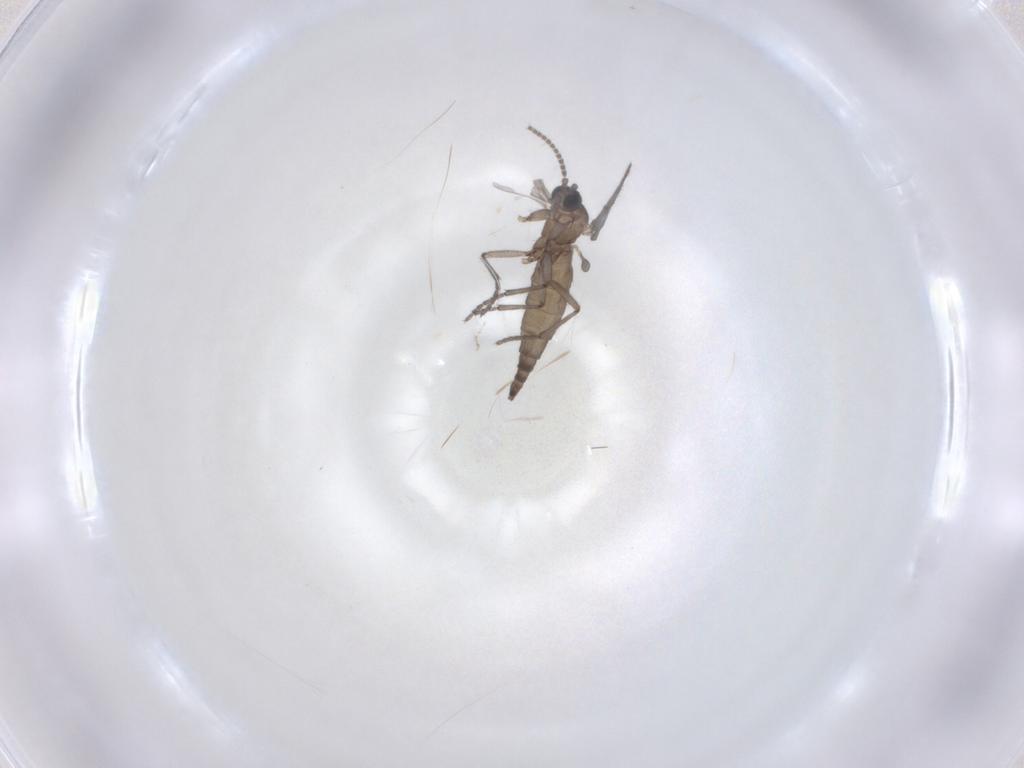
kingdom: Animalia
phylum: Arthropoda
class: Insecta
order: Diptera
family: Sciaridae
